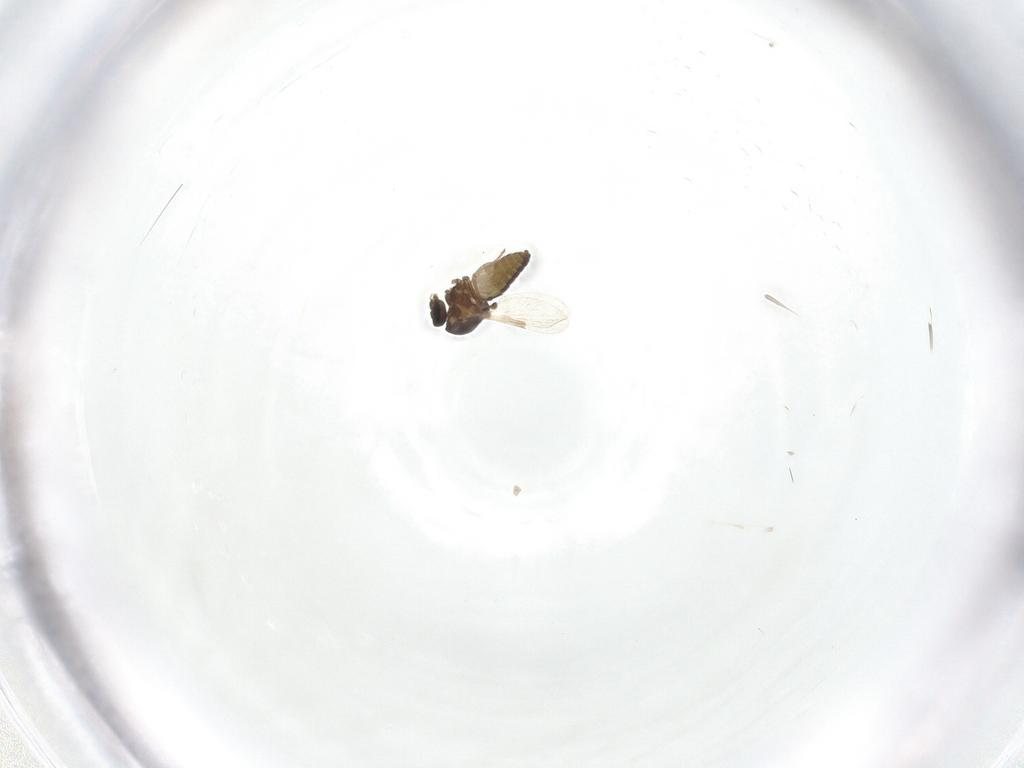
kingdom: Animalia
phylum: Arthropoda
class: Insecta
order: Diptera
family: Ceratopogonidae
